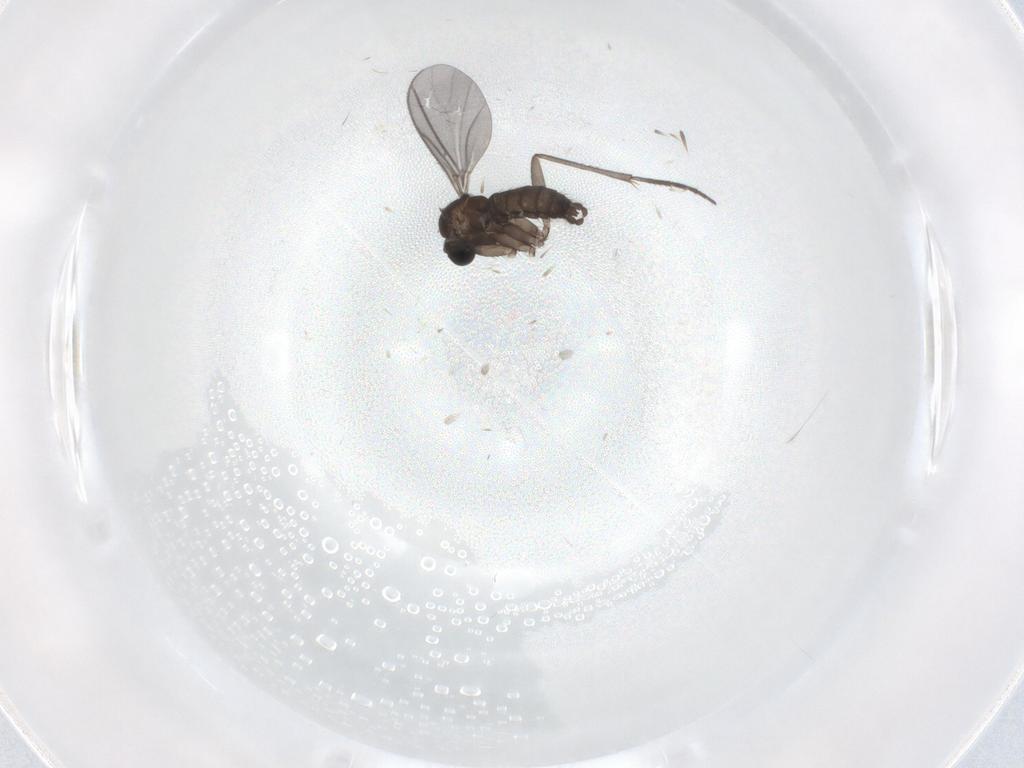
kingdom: Animalia
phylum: Arthropoda
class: Insecta
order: Diptera
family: Sciaridae
